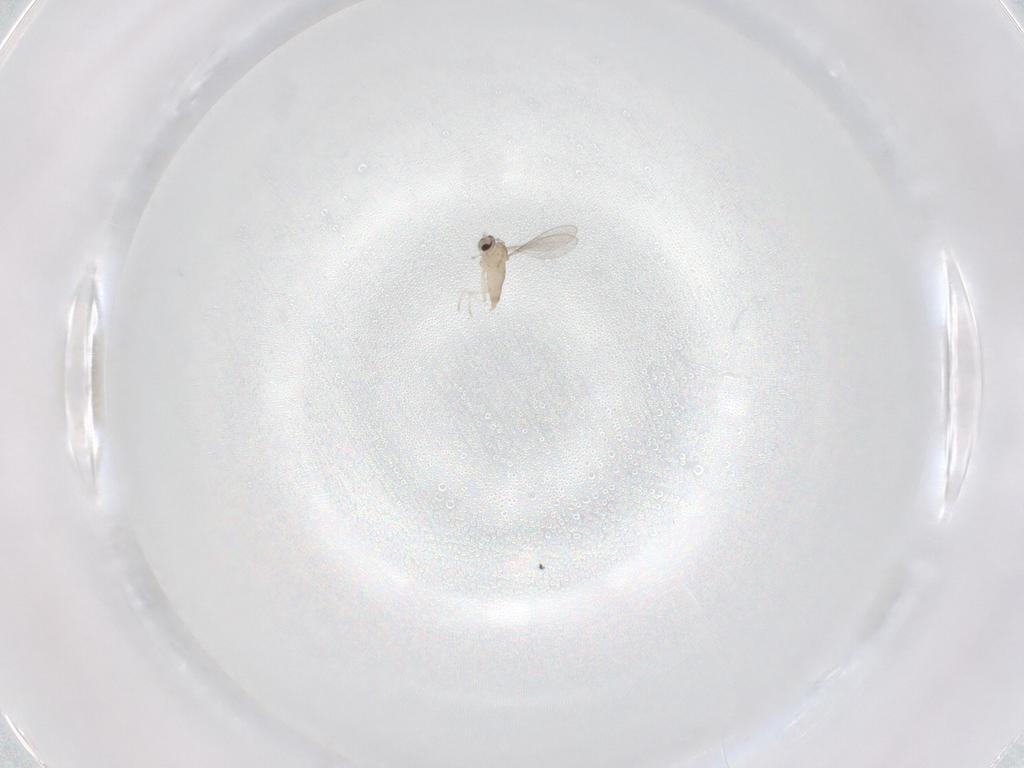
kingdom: Animalia
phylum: Arthropoda
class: Insecta
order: Diptera
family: Cecidomyiidae
